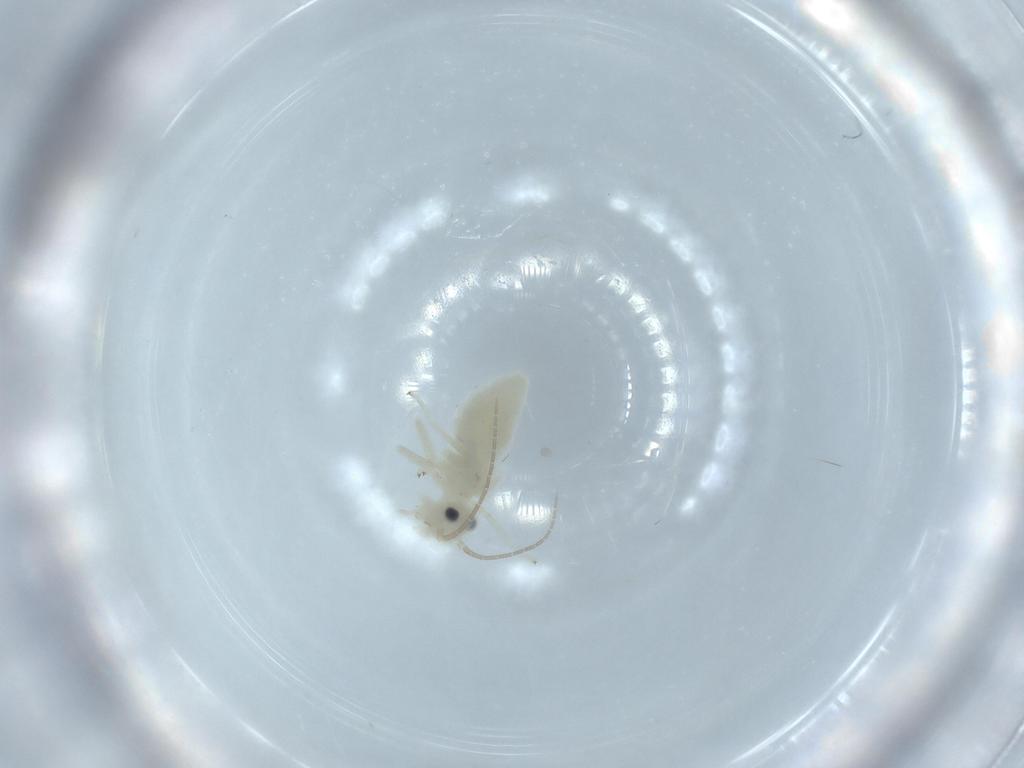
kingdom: Animalia
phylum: Arthropoda
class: Insecta
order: Psocodea
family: Caeciliusidae
